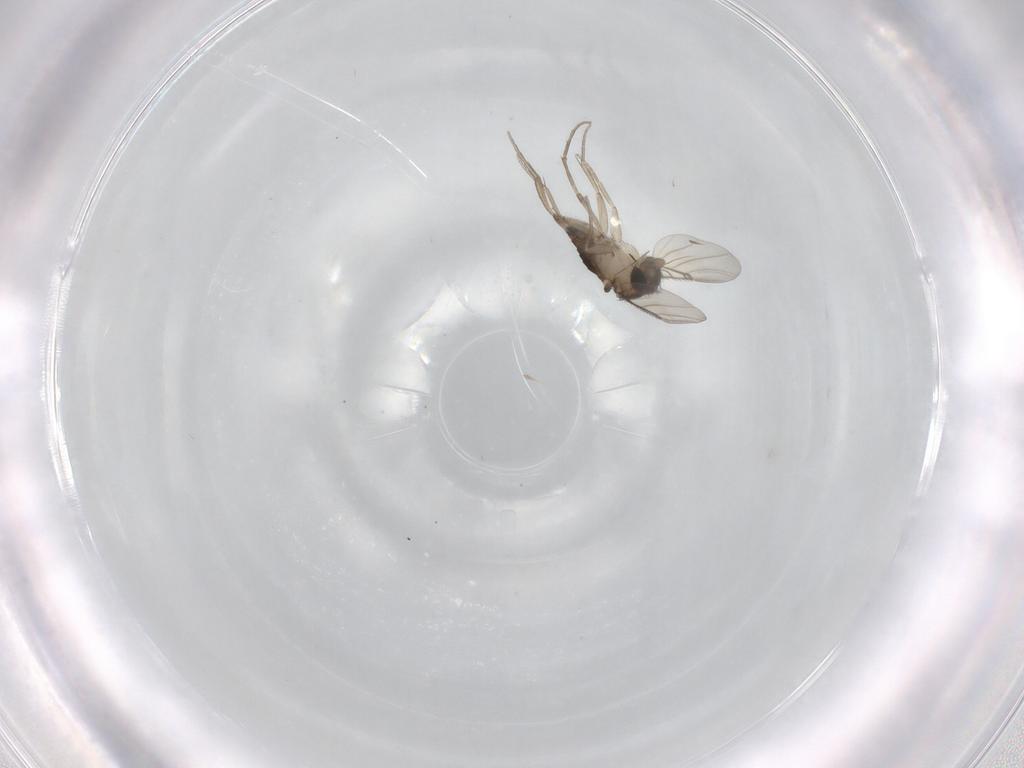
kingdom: Animalia
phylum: Arthropoda
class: Insecta
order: Diptera
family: Phoridae
